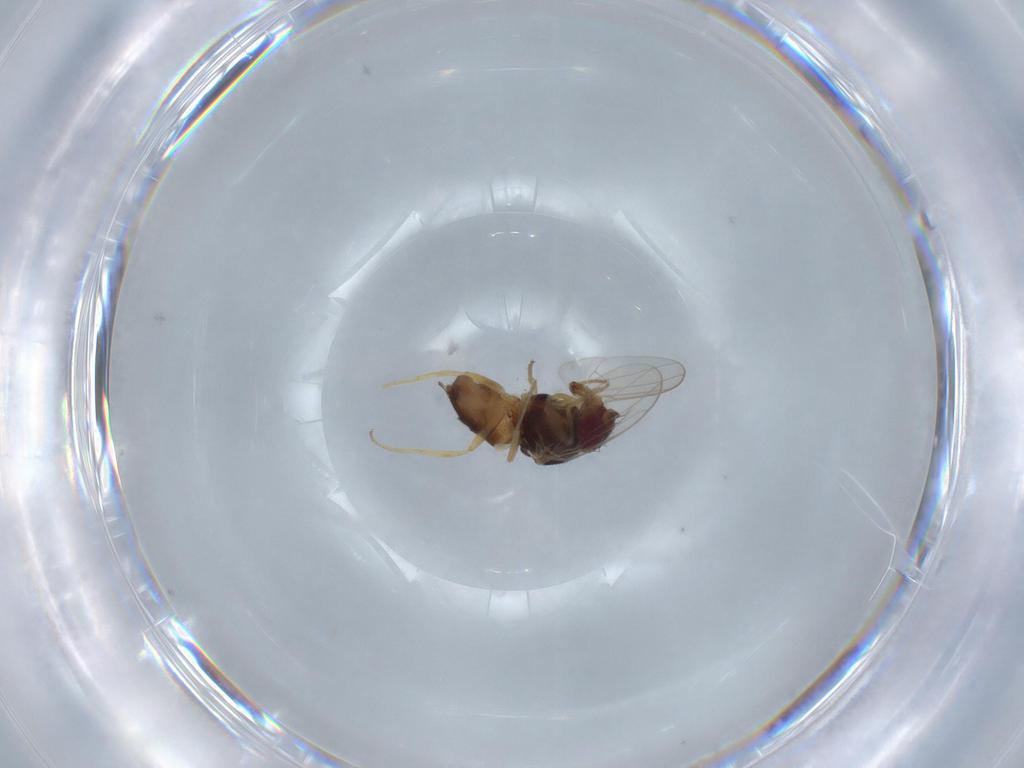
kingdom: Animalia
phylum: Arthropoda
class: Insecta
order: Diptera
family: Chloropidae
